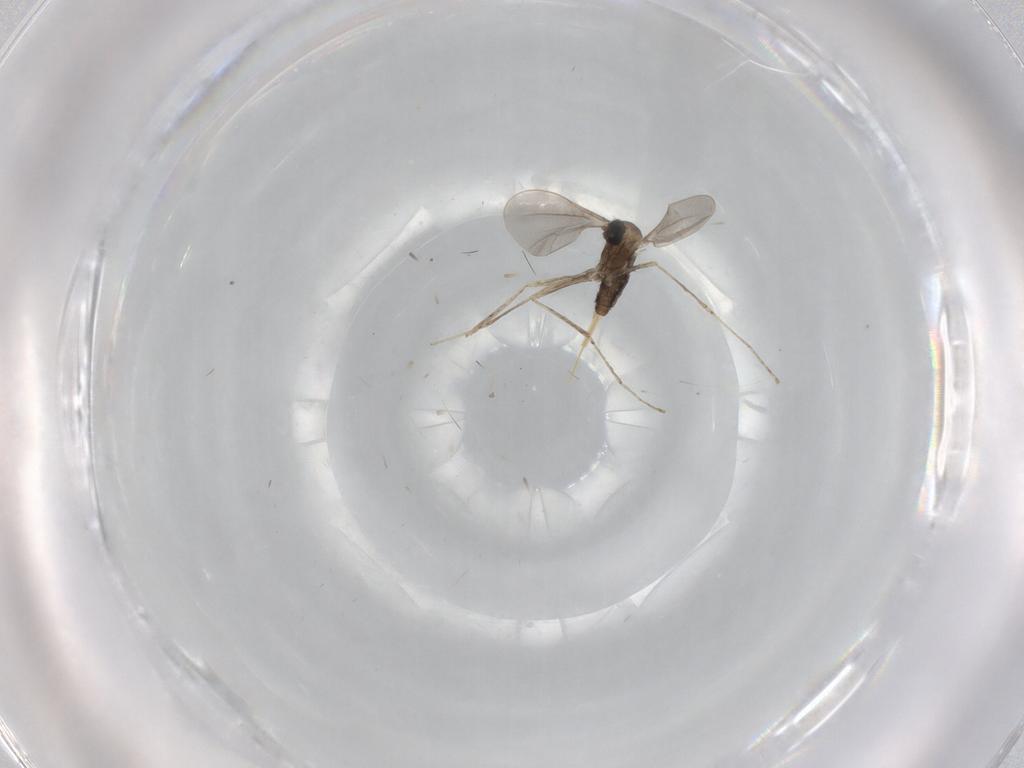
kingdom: Animalia
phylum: Arthropoda
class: Insecta
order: Diptera
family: Cecidomyiidae
